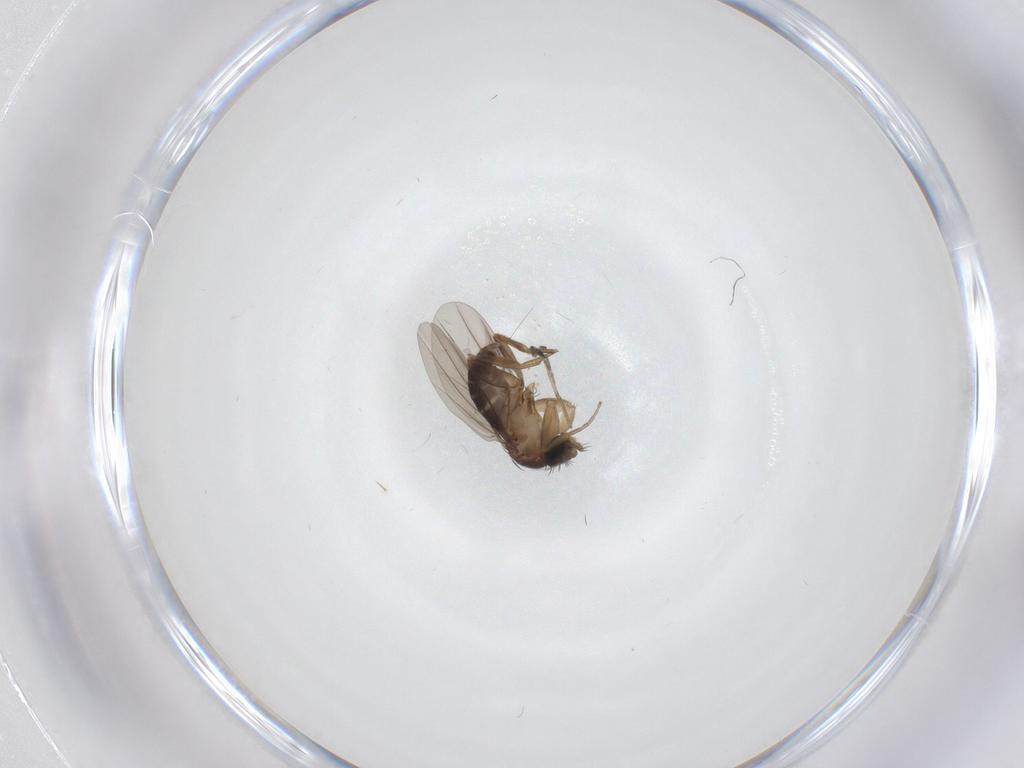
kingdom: Animalia
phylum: Arthropoda
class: Insecta
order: Diptera
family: Cecidomyiidae
